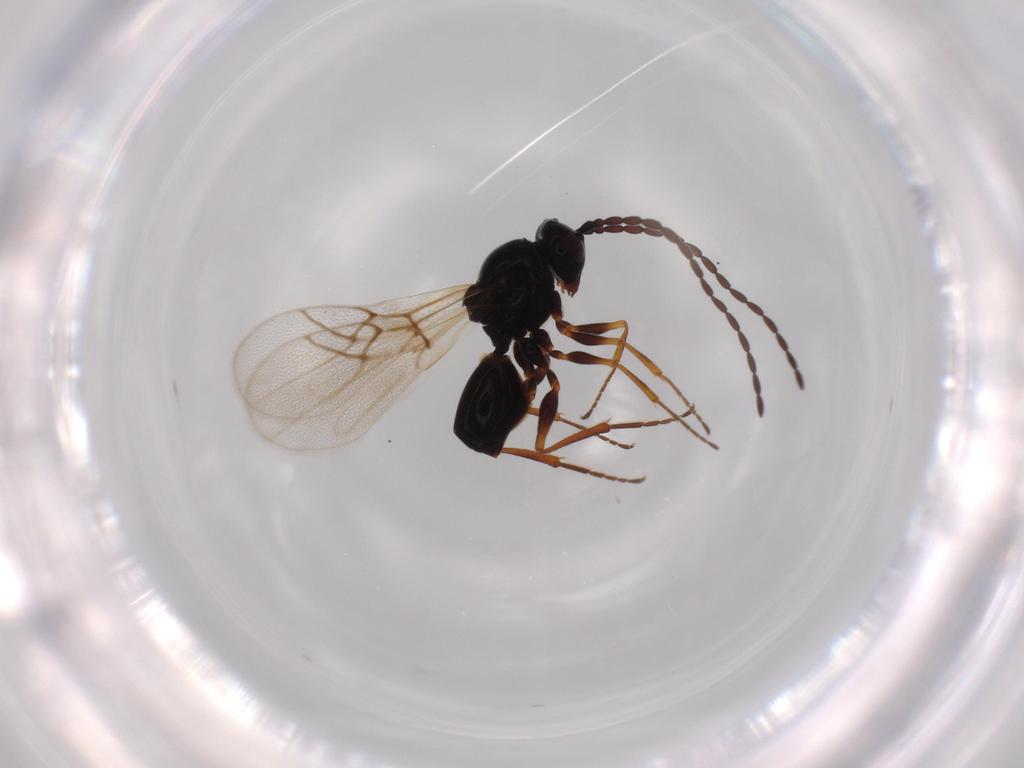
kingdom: Animalia
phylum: Arthropoda
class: Insecta
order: Hymenoptera
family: Figitidae
